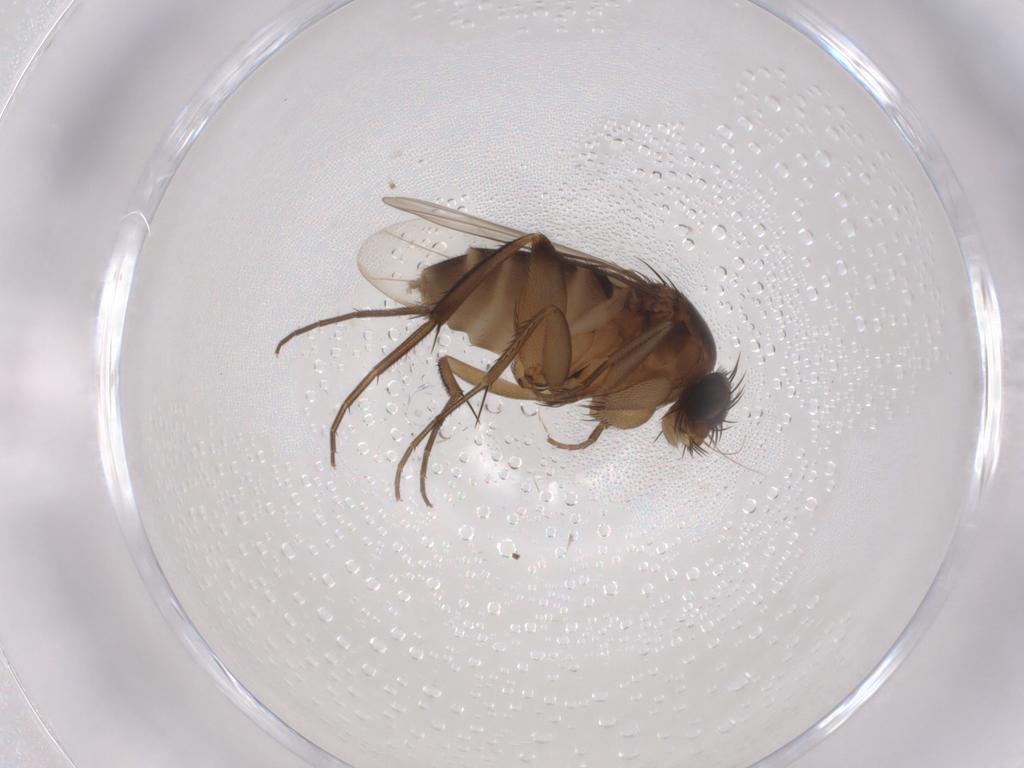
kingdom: Animalia
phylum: Arthropoda
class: Insecta
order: Diptera
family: Phoridae
